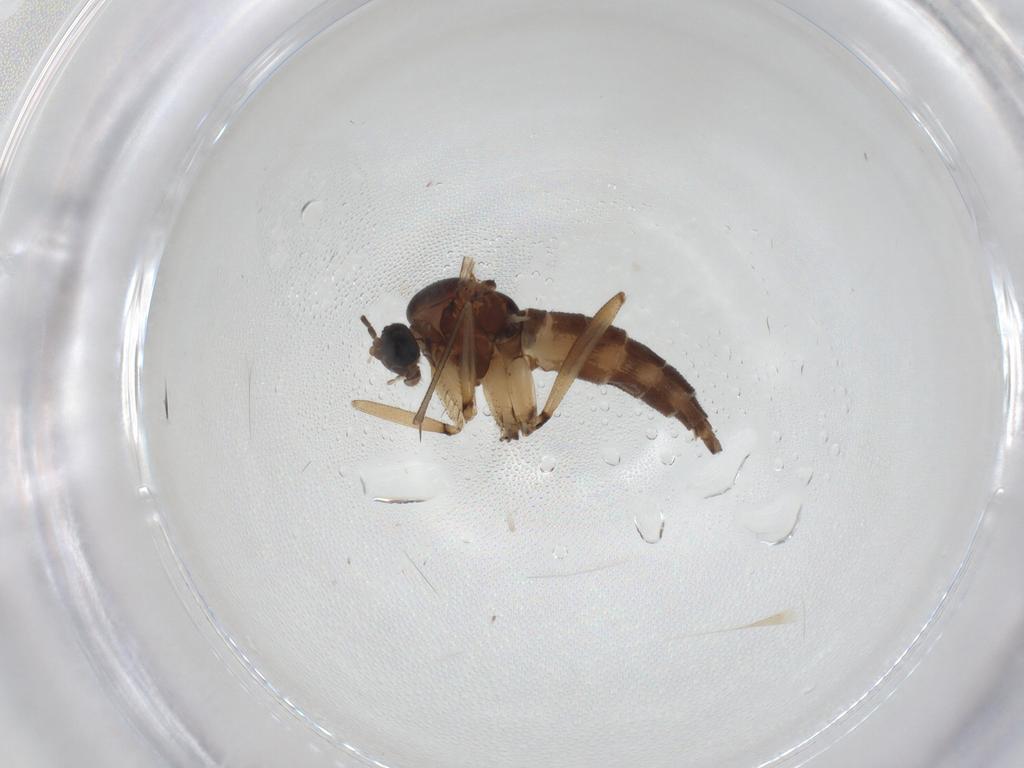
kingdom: Animalia
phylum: Arthropoda
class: Insecta
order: Diptera
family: Sciaridae
